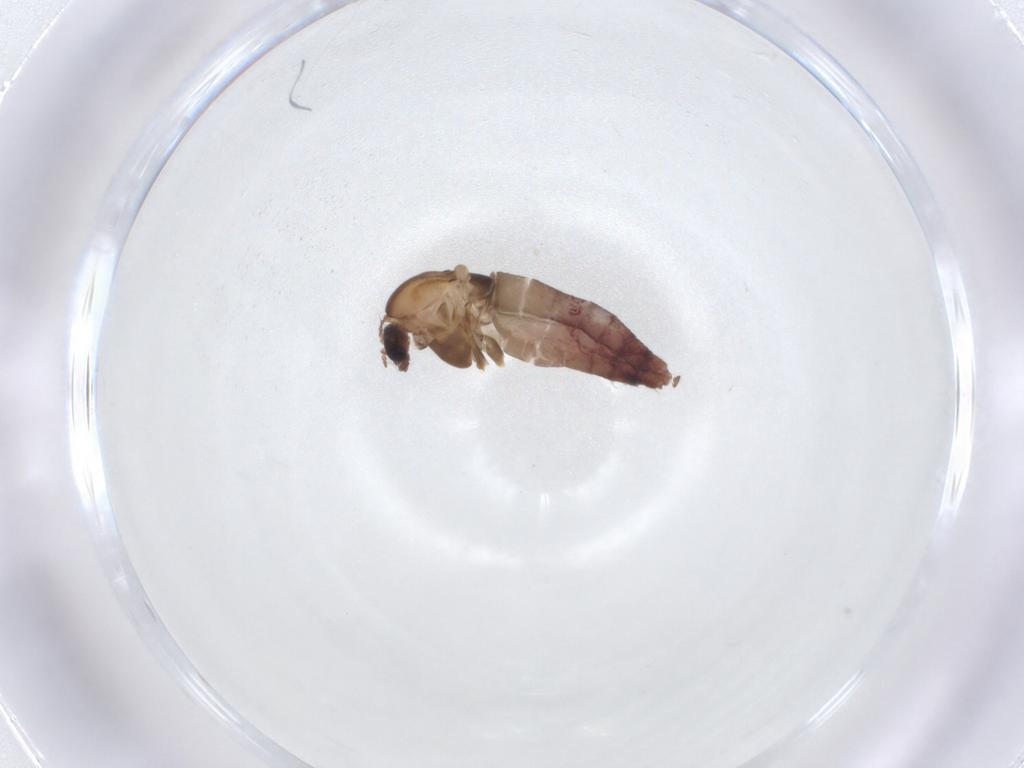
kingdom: Animalia
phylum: Arthropoda
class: Insecta
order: Diptera
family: Chironomidae
